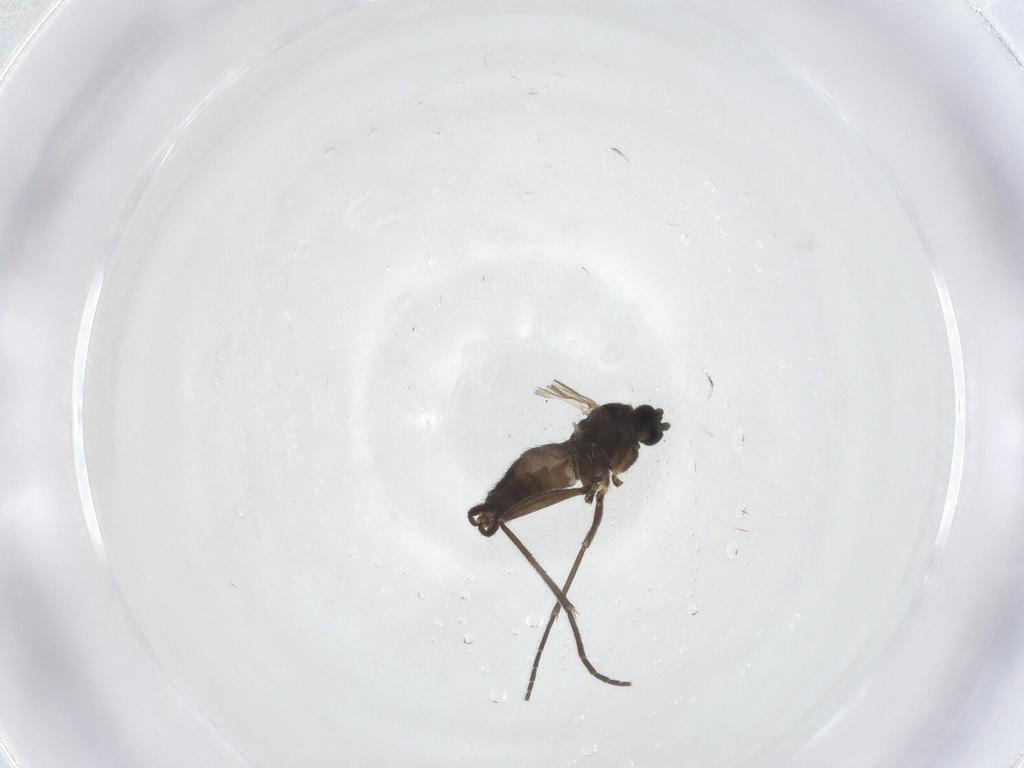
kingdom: Animalia
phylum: Arthropoda
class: Insecta
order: Diptera
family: Sciaridae
